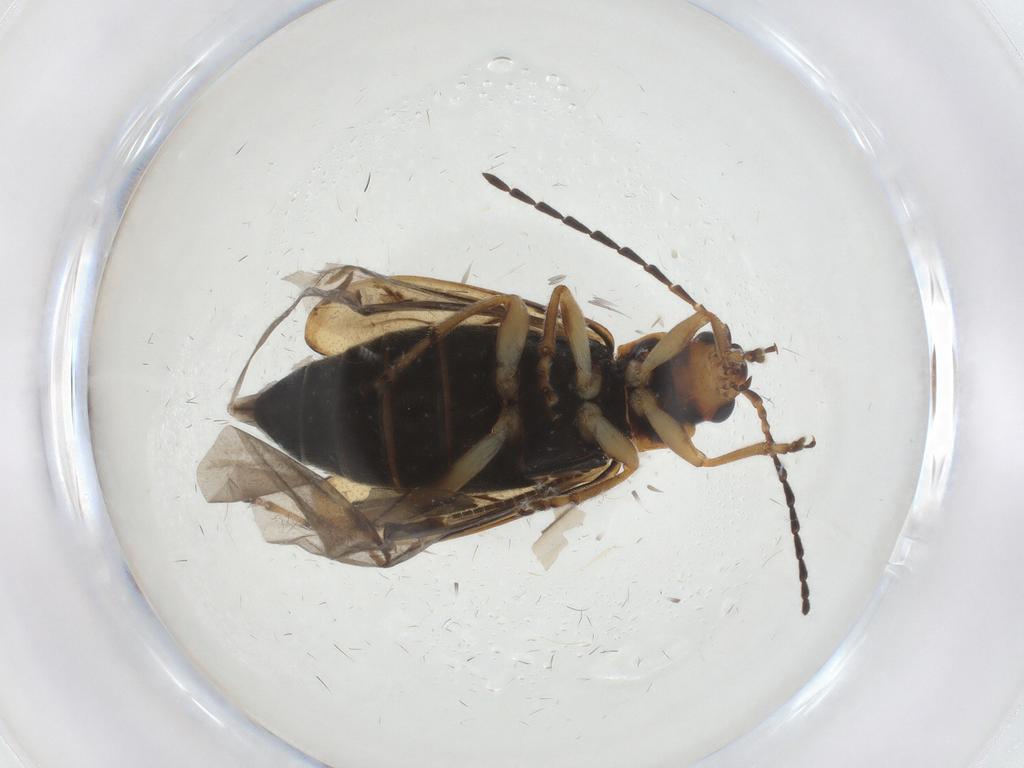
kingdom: Animalia
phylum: Arthropoda
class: Insecta
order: Coleoptera
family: Chrysomelidae
